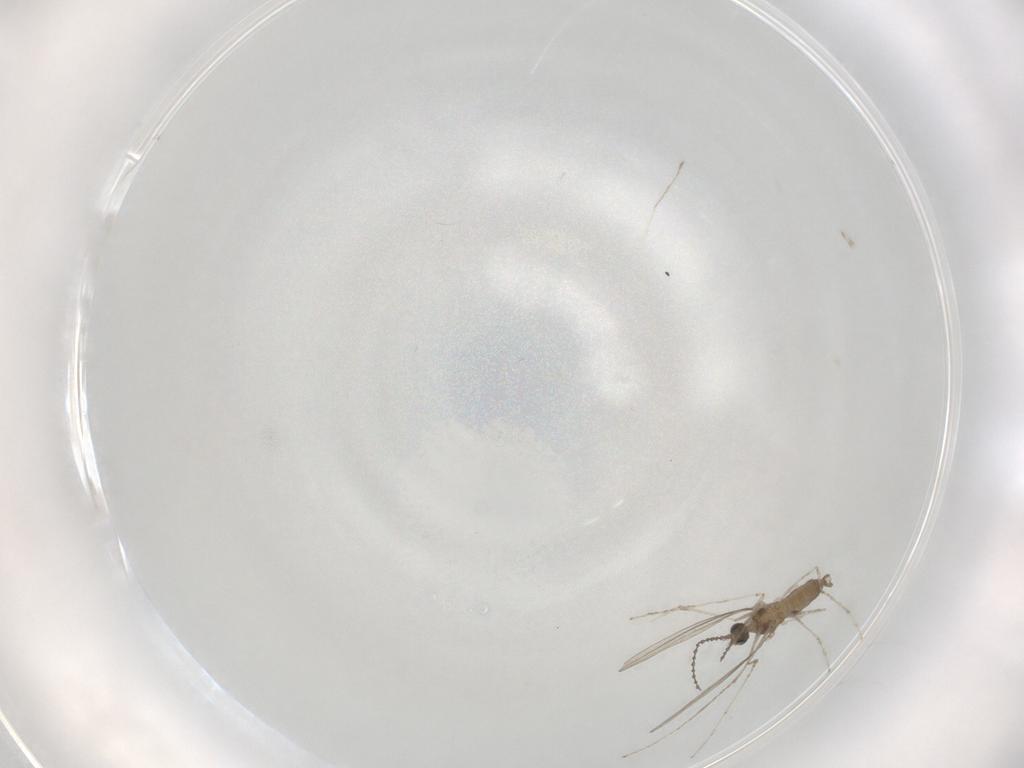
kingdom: Animalia
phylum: Arthropoda
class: Insecta
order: Diptera
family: Cecidomyiidae
